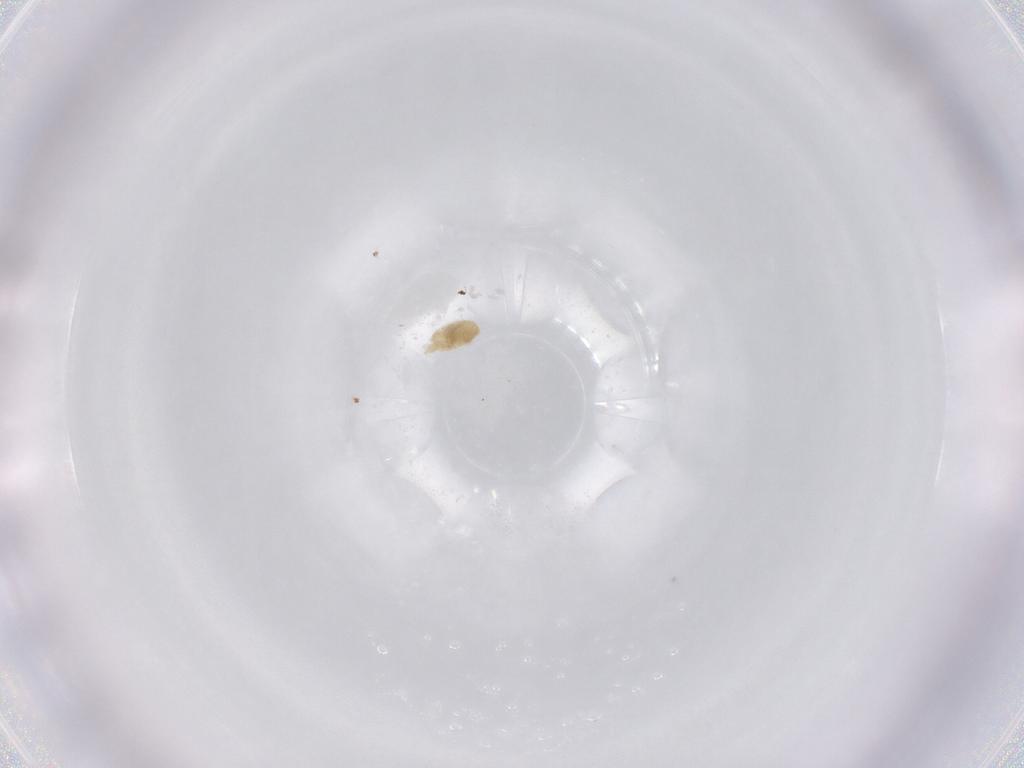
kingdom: Animalia
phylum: Arthropoda
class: Arachnida
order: Trombidiformes
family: Eupodidae
